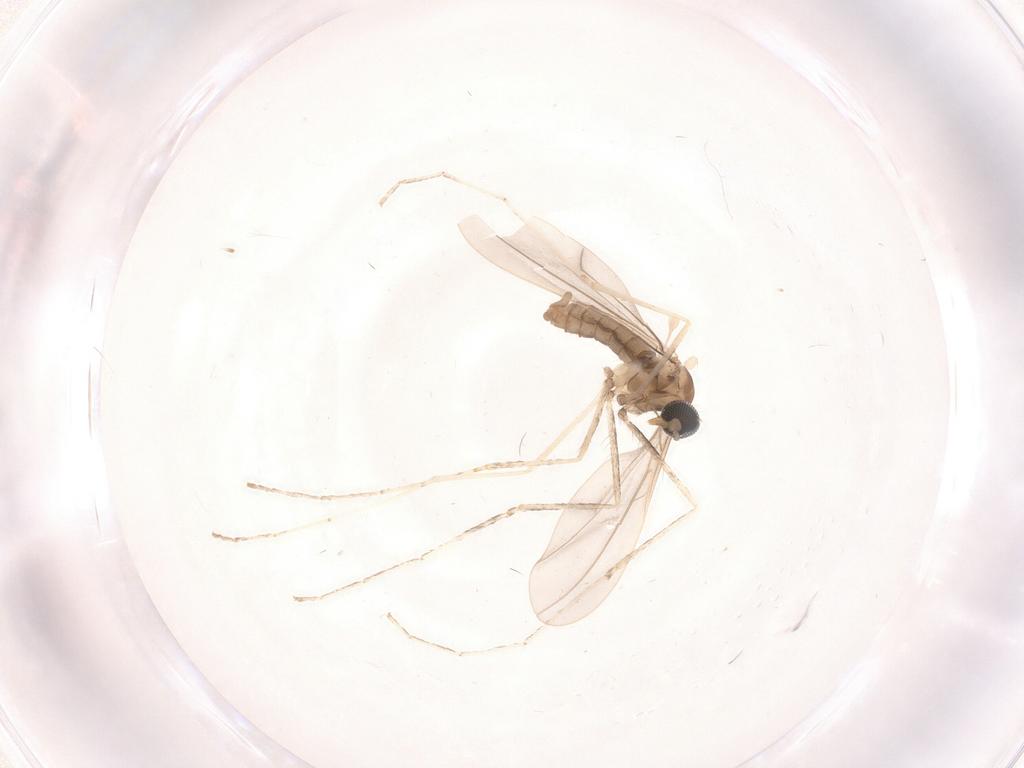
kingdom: Animalia
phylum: Arthropoda
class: Insecta
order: Diptera
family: Cecidomyiidae
